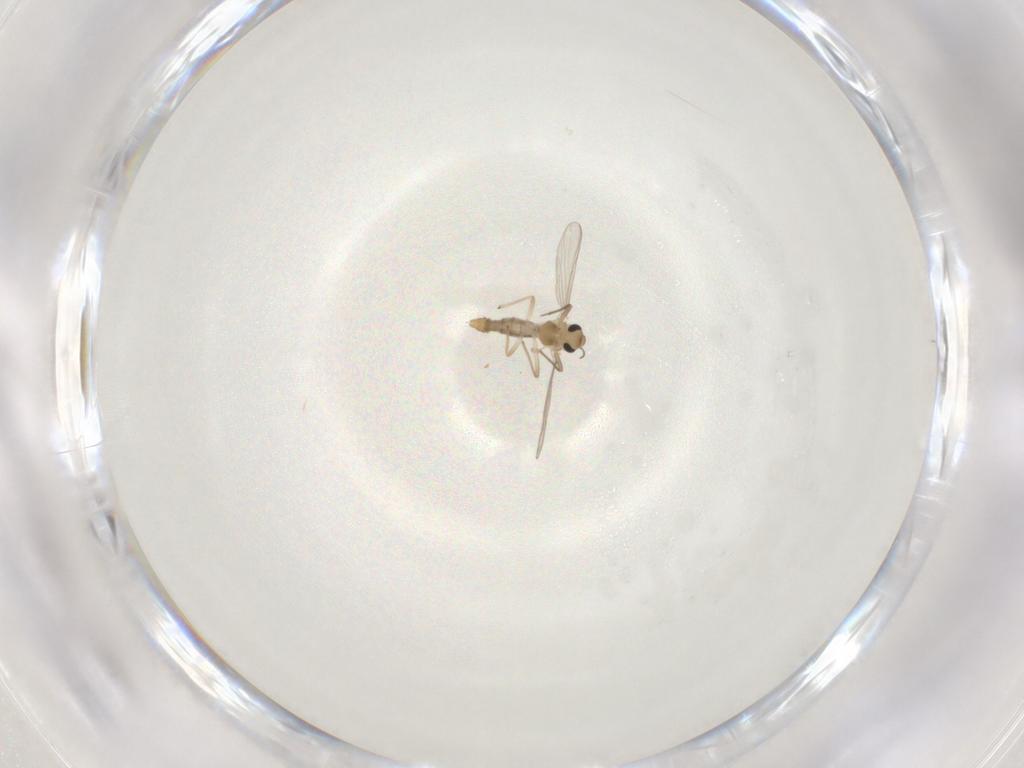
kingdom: Animalia
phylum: Arthropoda
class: Insecta
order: Diptera
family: Chironomidae
